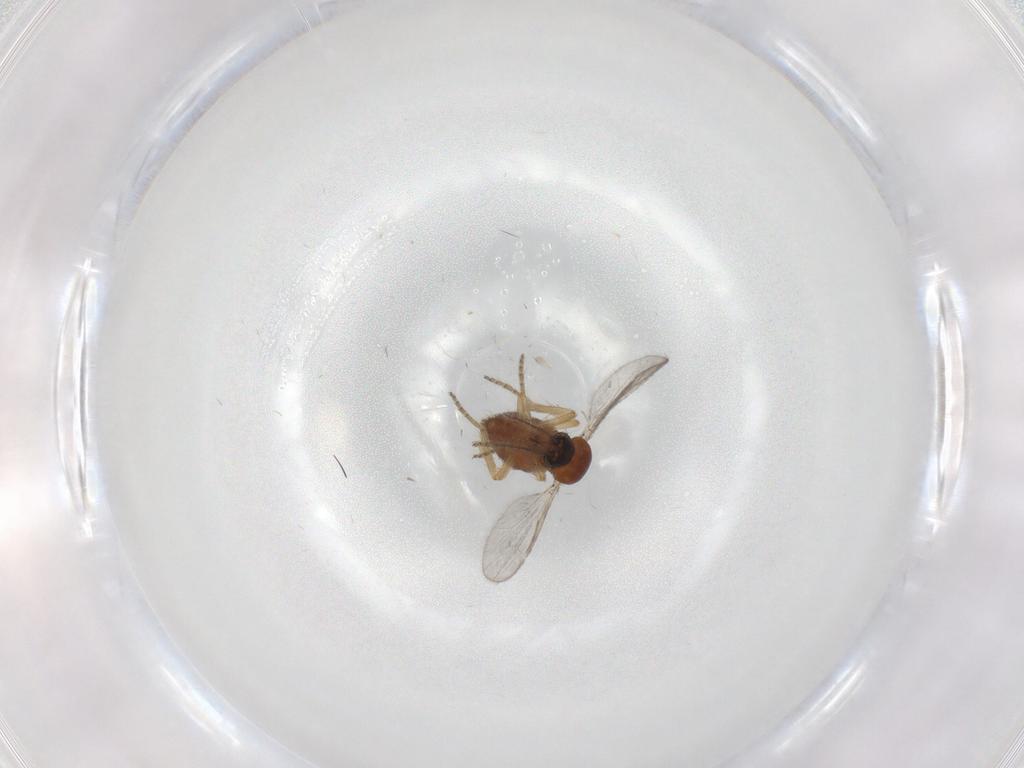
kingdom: Animalia
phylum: Arthropoda
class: Insecta
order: Diptera
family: Ceratopogonidae
